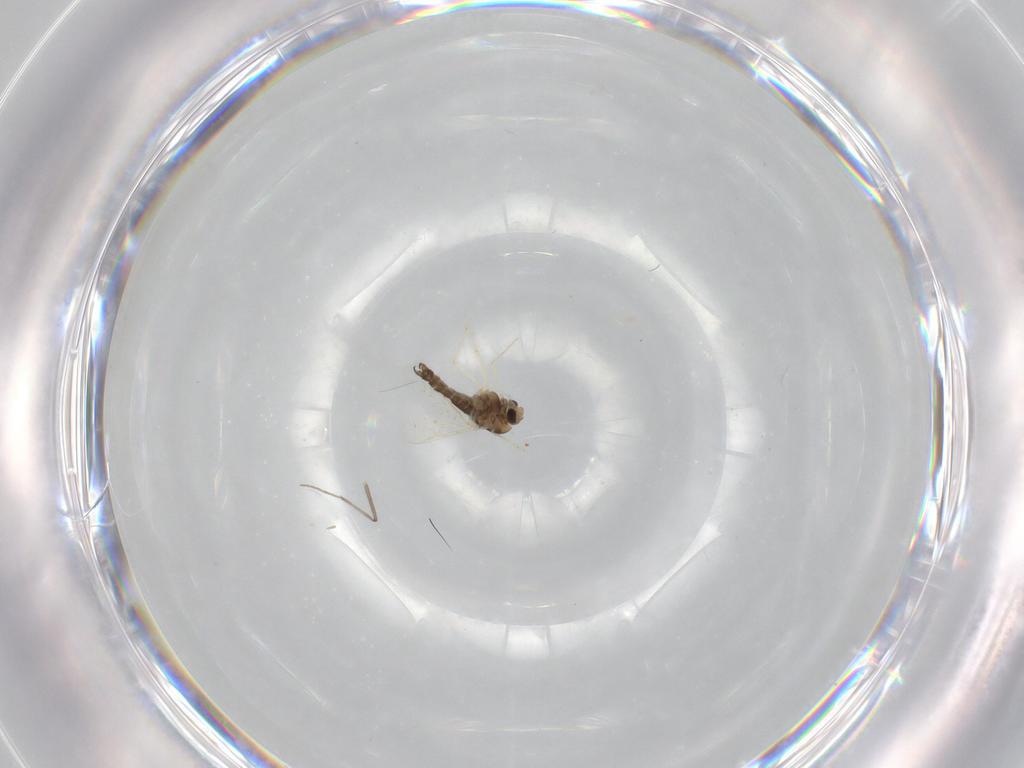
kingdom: Animalia
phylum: Arthropoda
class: Insecta
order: Diptera
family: Chironomidae
